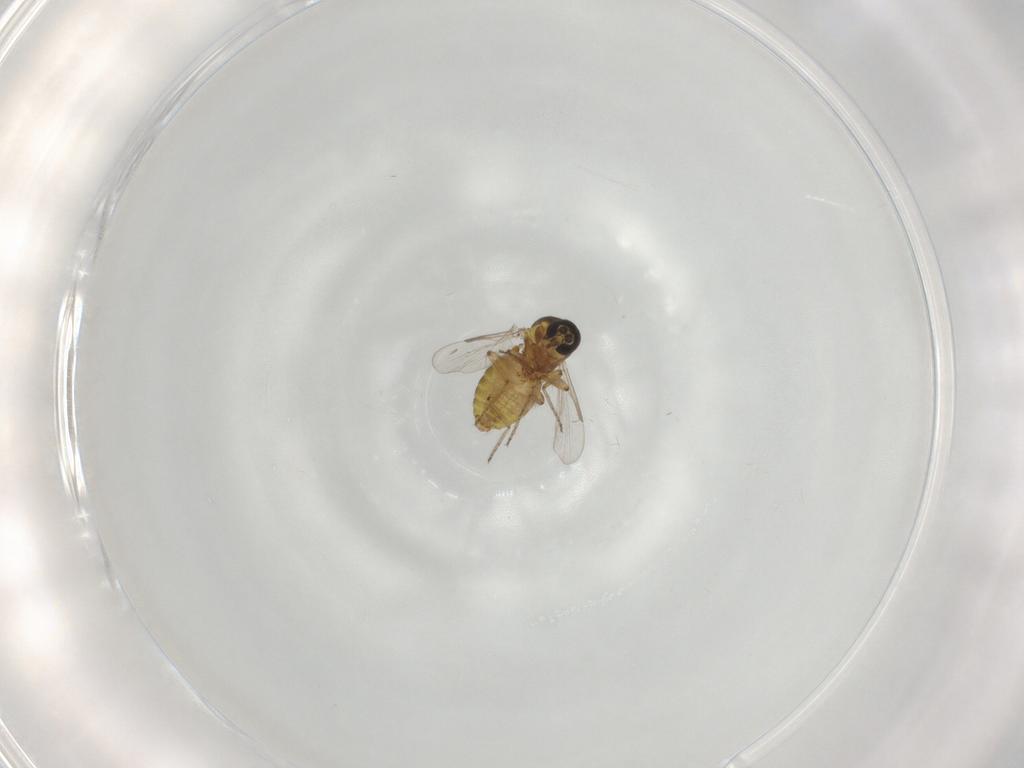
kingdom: Animalia
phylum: Arthropoda
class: Insecta
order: Diptera
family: Ceratopogonidae
